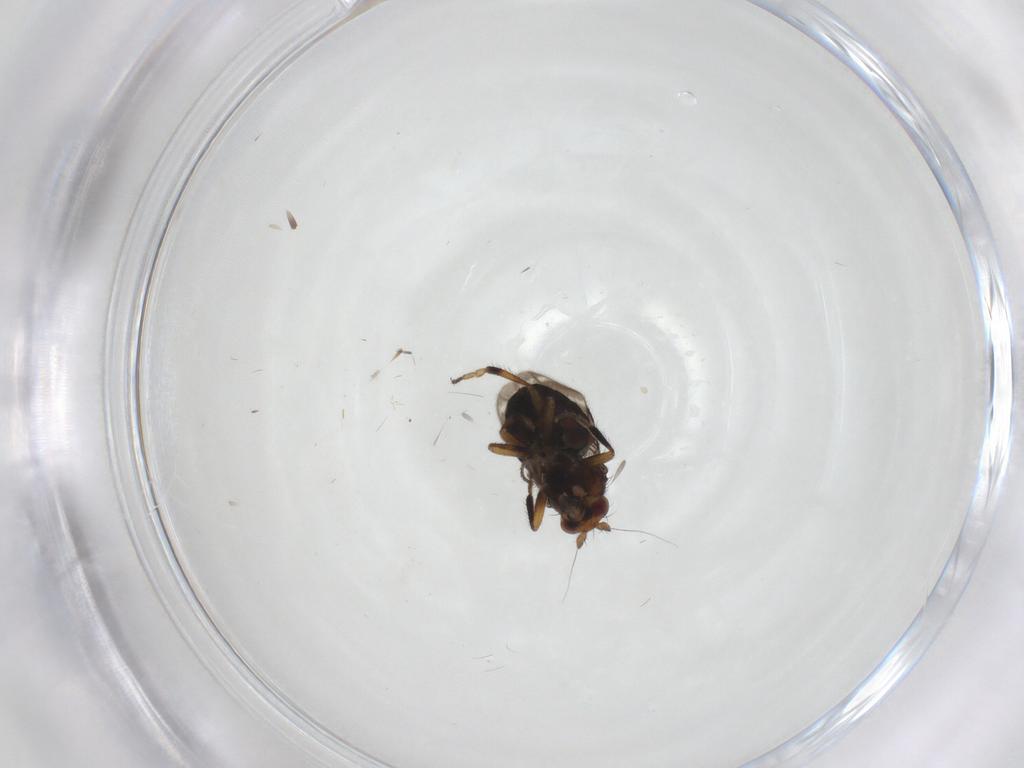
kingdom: Animalia
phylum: Arthropoda
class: Insecta
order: Diptera
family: Sphaeroceridae
